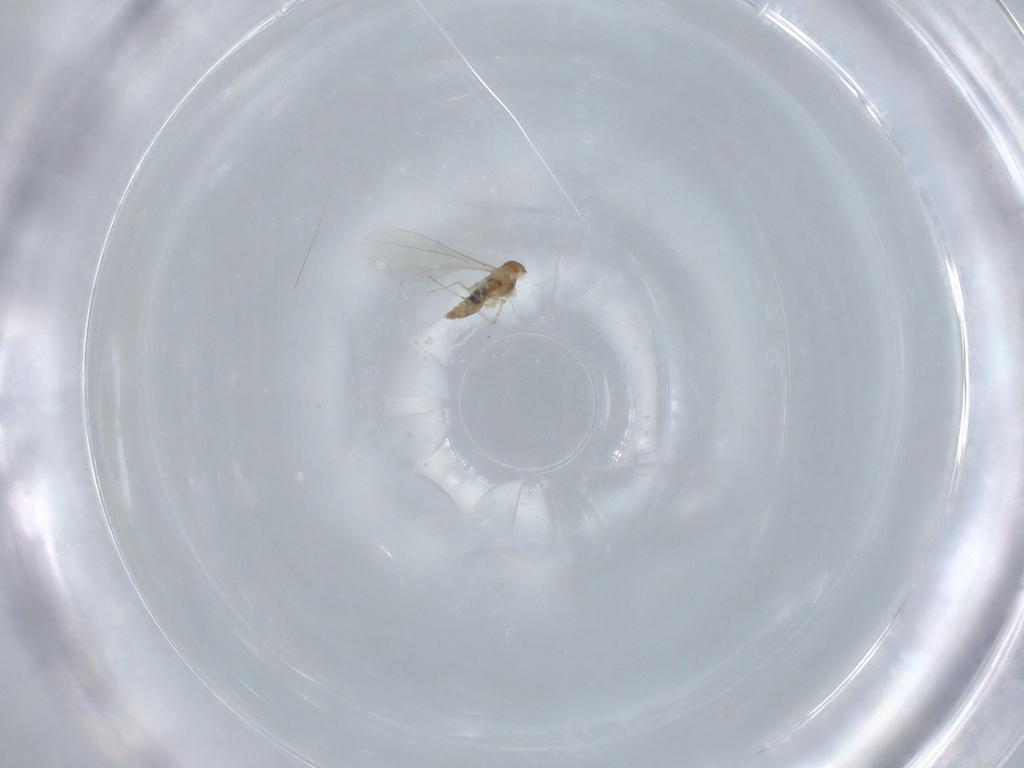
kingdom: Animalia
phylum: Arthropoda
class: Insecta
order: Diptera
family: Cecidomyiidae
